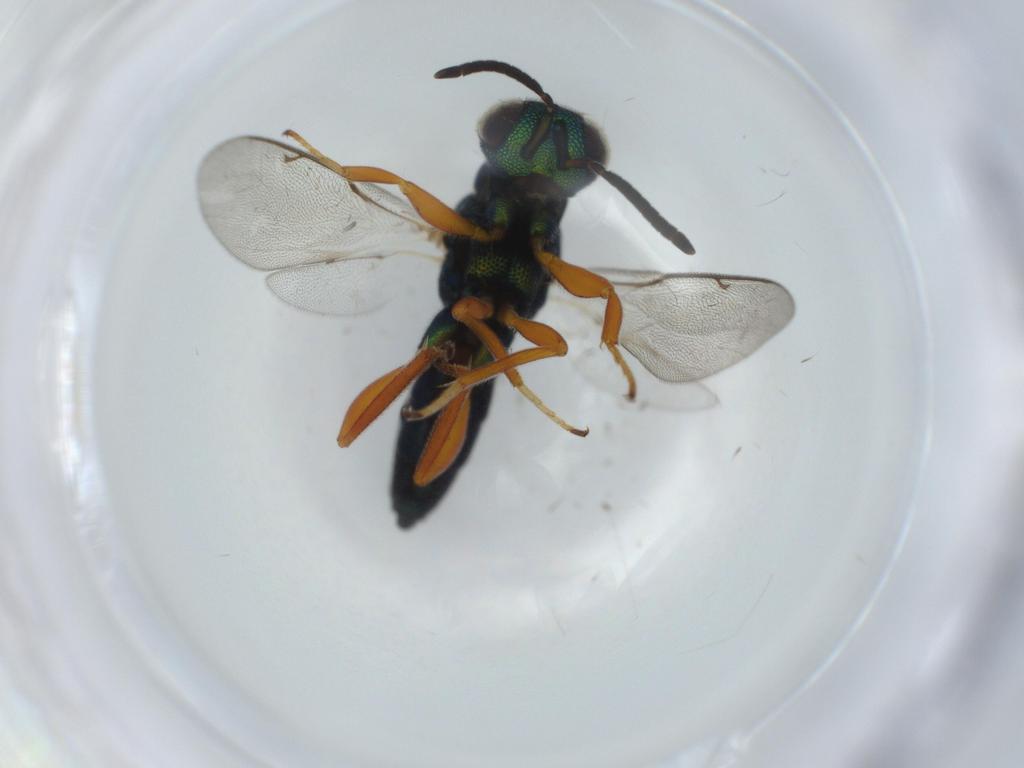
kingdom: Animalia
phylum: Arthropoda
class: Insecta
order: Hymenoptera
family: Lyciscidae
